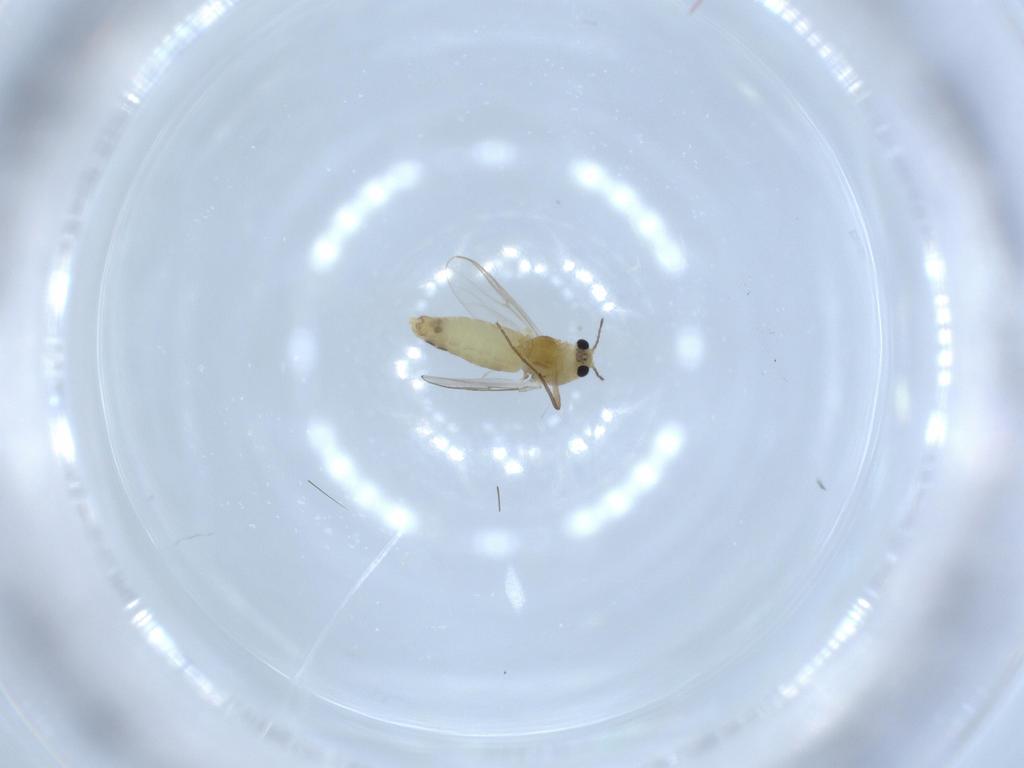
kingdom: Animalia
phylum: Arthropoda
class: Insecta
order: Diptera
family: Chironomidae
